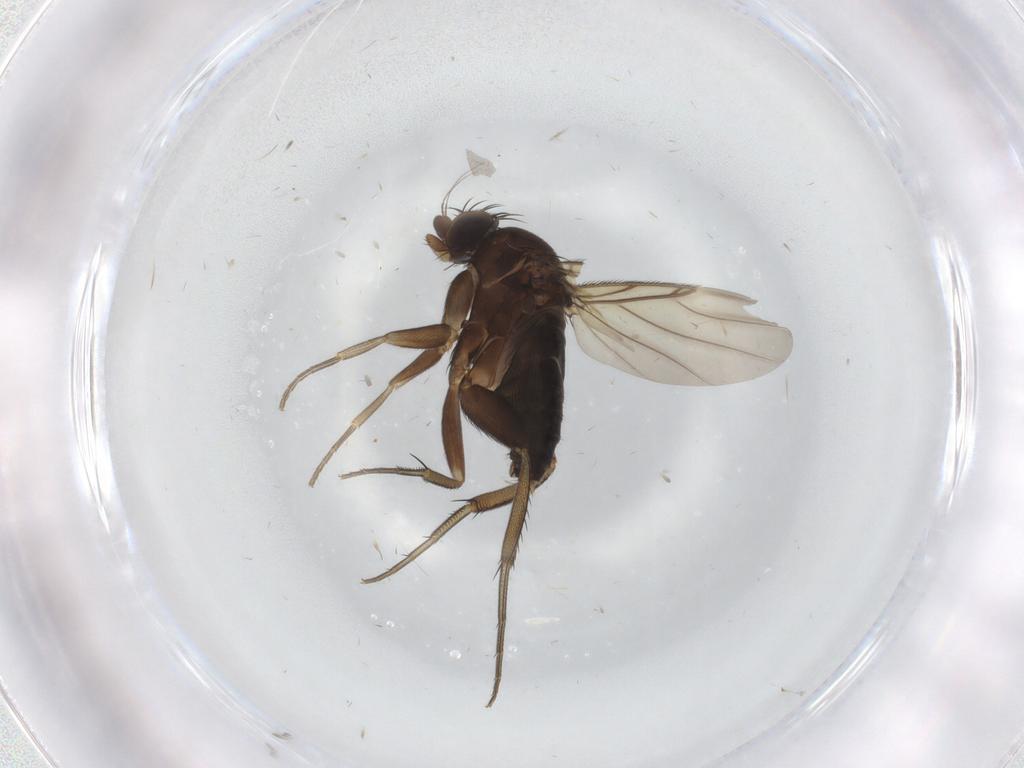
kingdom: Animalia
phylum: Arthropoda
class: Insecta
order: Diptera
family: Phoridae
